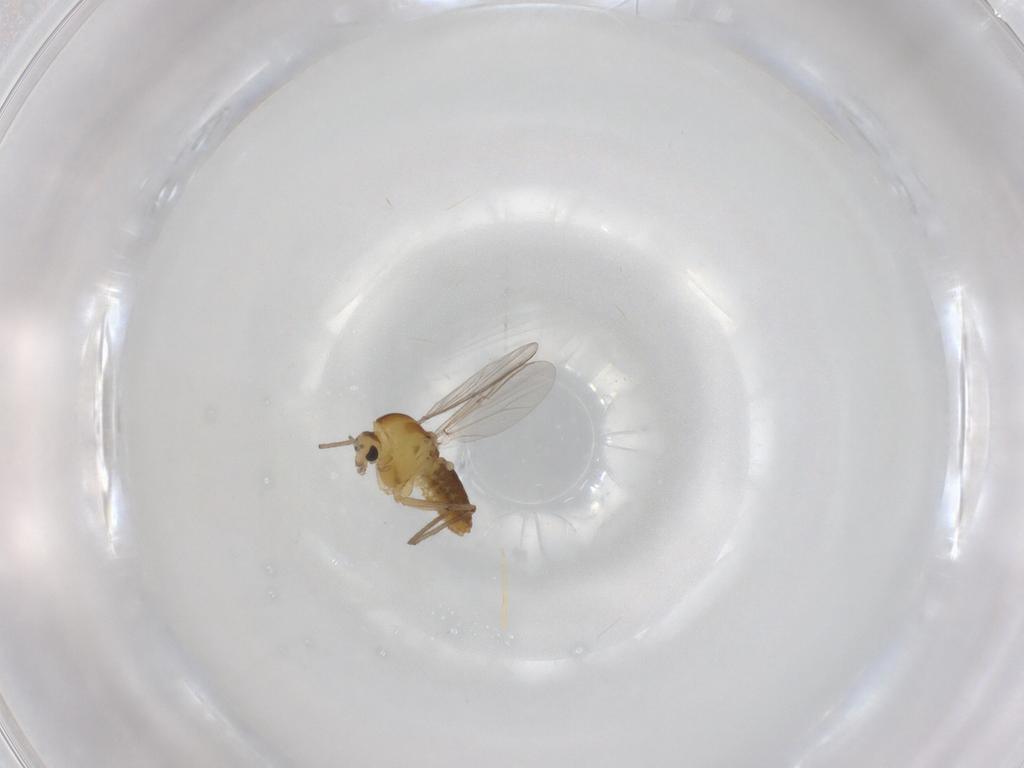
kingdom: Animalia
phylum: Arthropoda
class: Insecta
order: Diptera
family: Chironomidae
